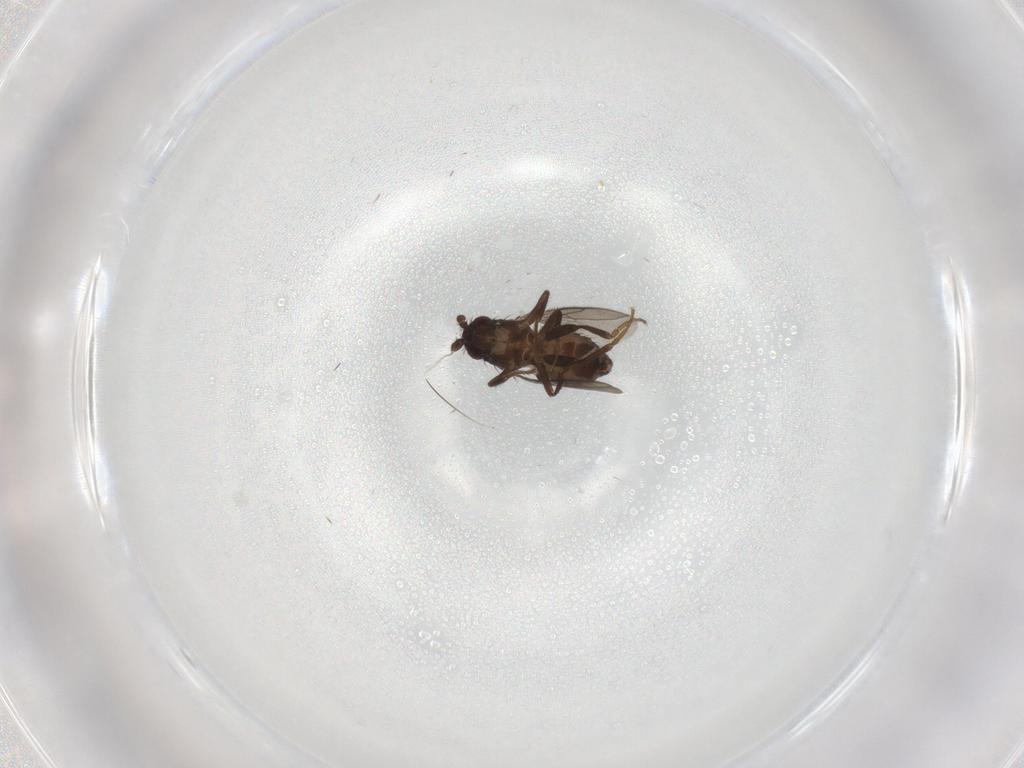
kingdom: Animalia
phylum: Arthropoda
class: Insecta
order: Diptera
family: Sphaeroceridae
